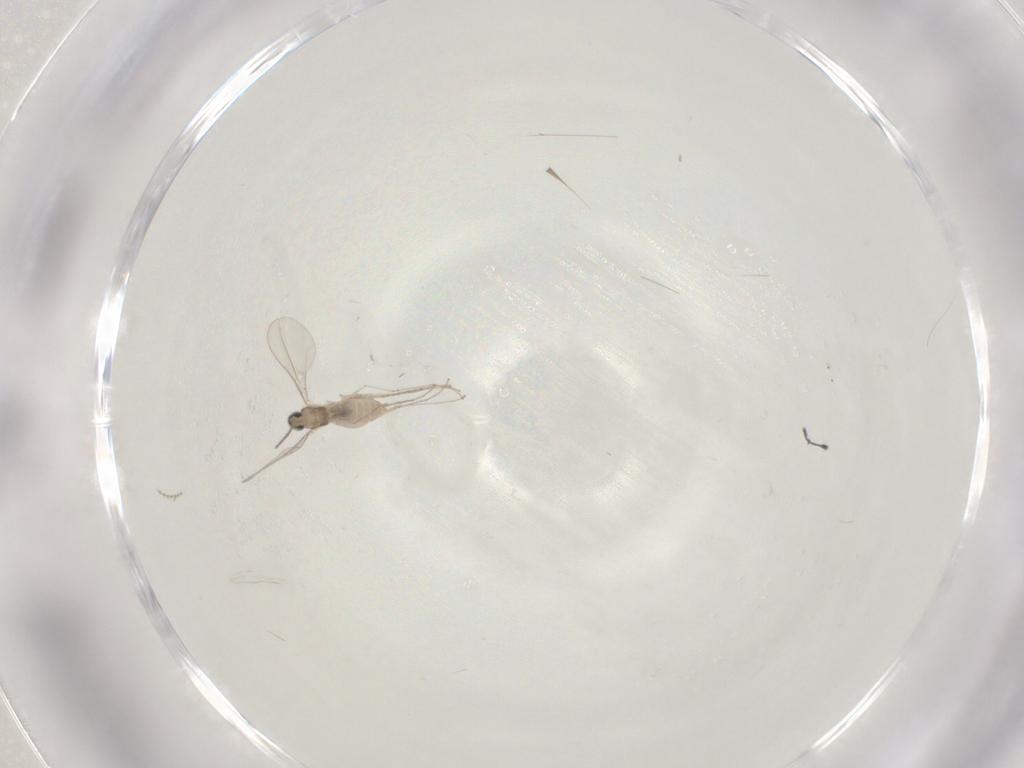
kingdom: Animalia
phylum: Arthropoda
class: Insecta
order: Diptera
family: Cecidomyiidae
